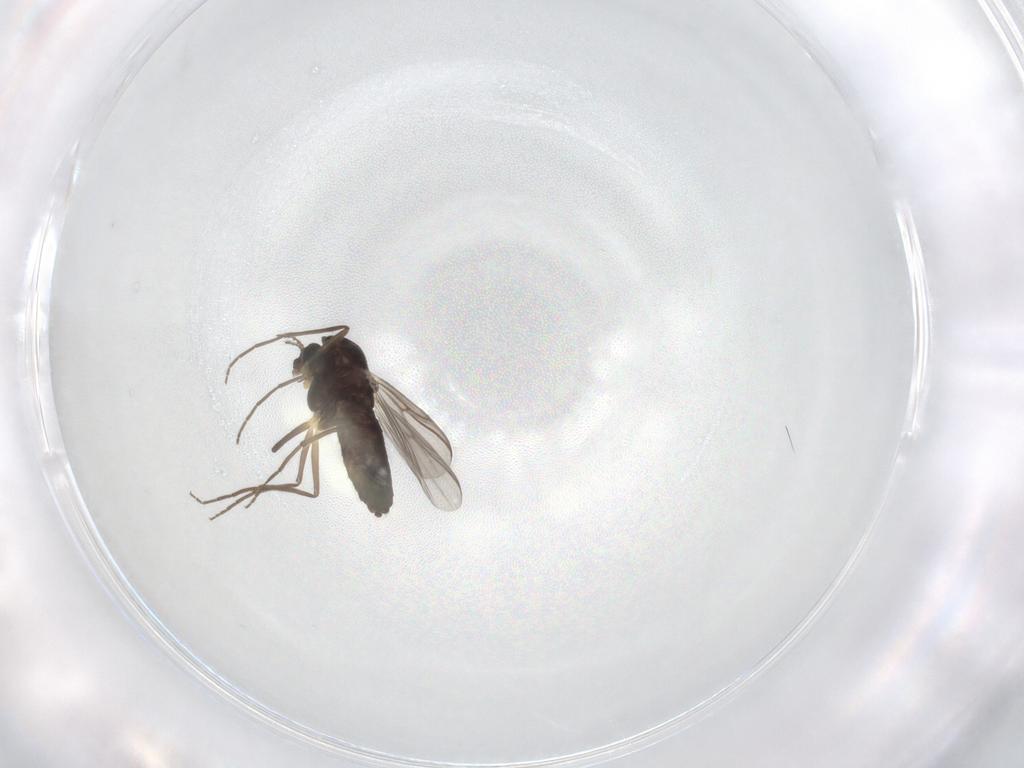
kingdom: Animalia
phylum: Arthropoda
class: Insecta
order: Diptera
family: Chironomidae
